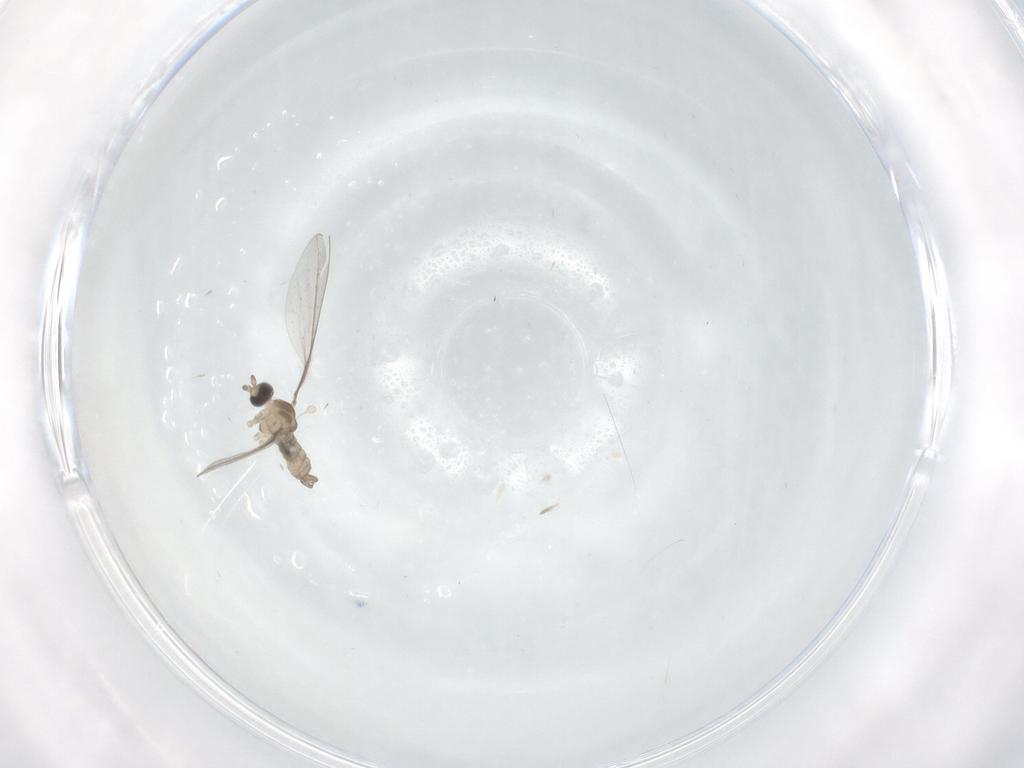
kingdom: Animalia
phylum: Arthropoda
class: Insecta
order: Diptera
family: Cecidomyiidae
